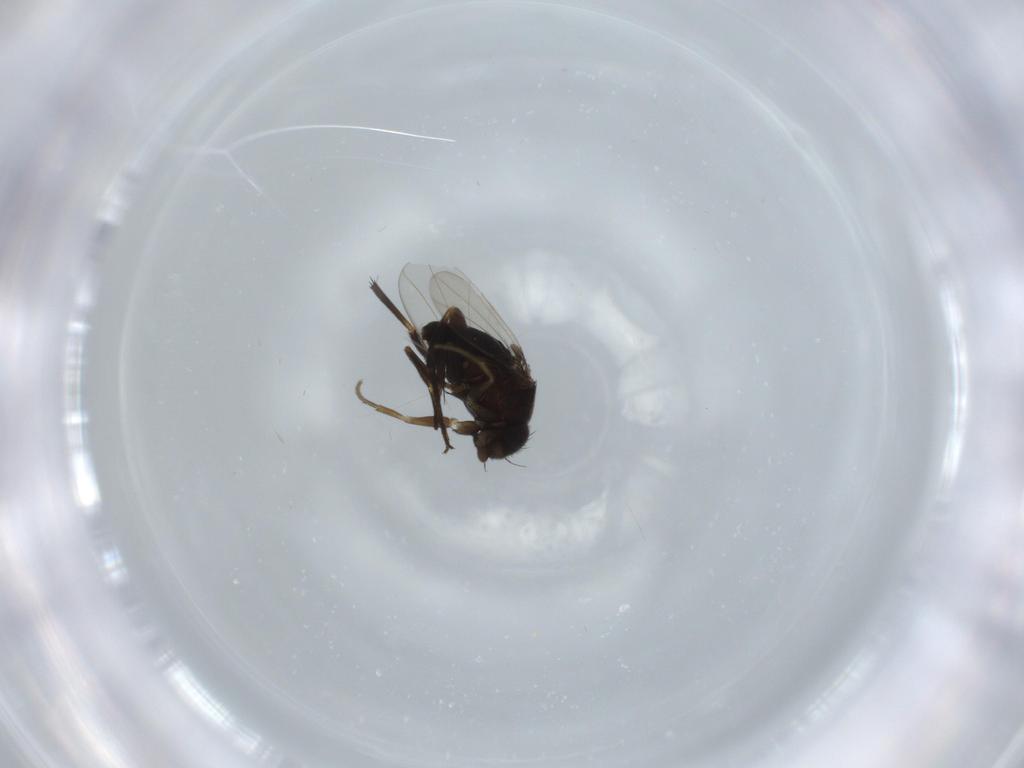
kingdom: Animalia
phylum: Arthropoda
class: Insecta
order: Diptera
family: Phoridae
